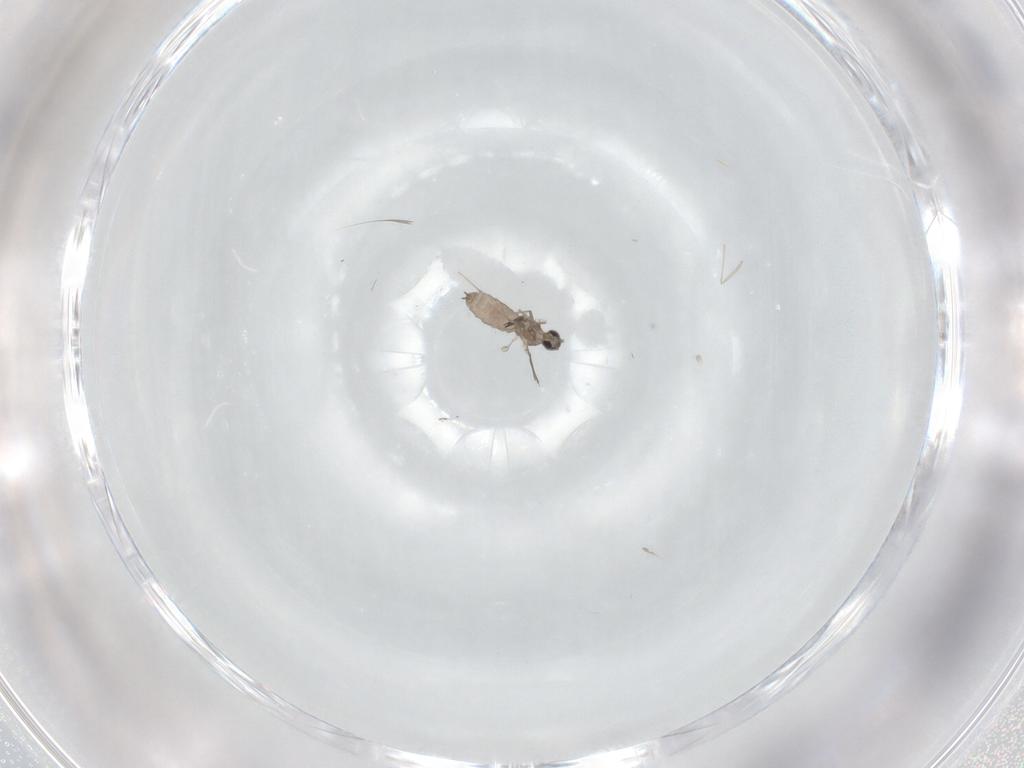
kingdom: Animalia
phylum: Arthropoda
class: Insecta
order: Diptera
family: Cecidomyiidae
